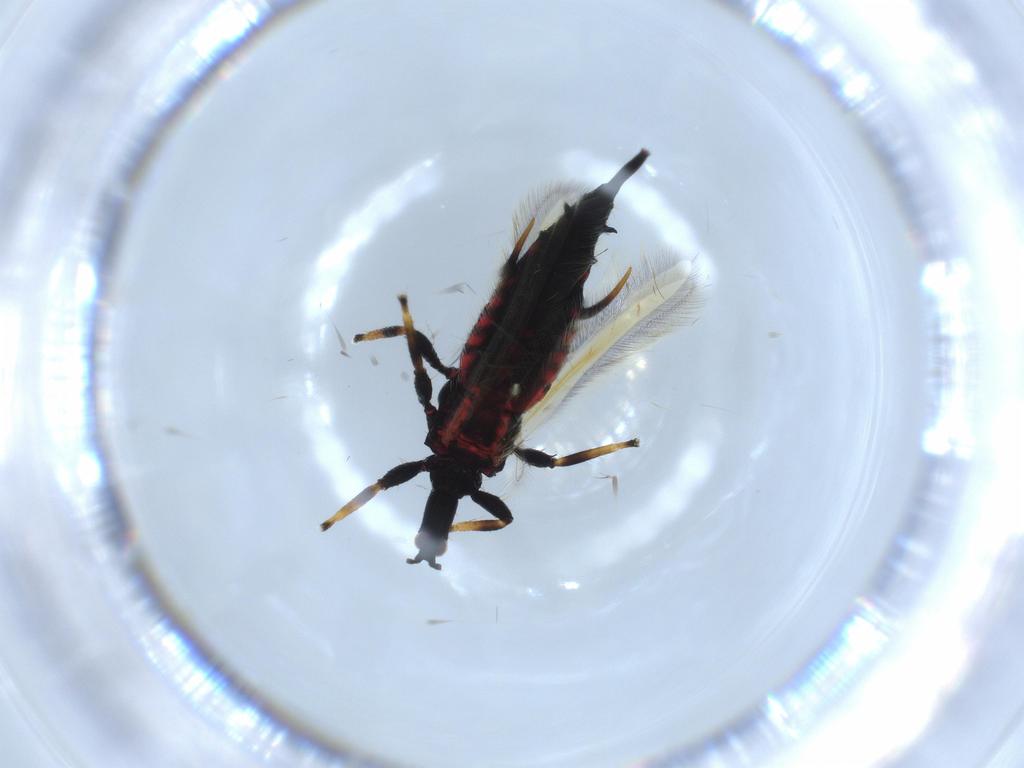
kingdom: Animalia
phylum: Arthropoda
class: Insecta
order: Thysanoptera
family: Phlaeothripidae
